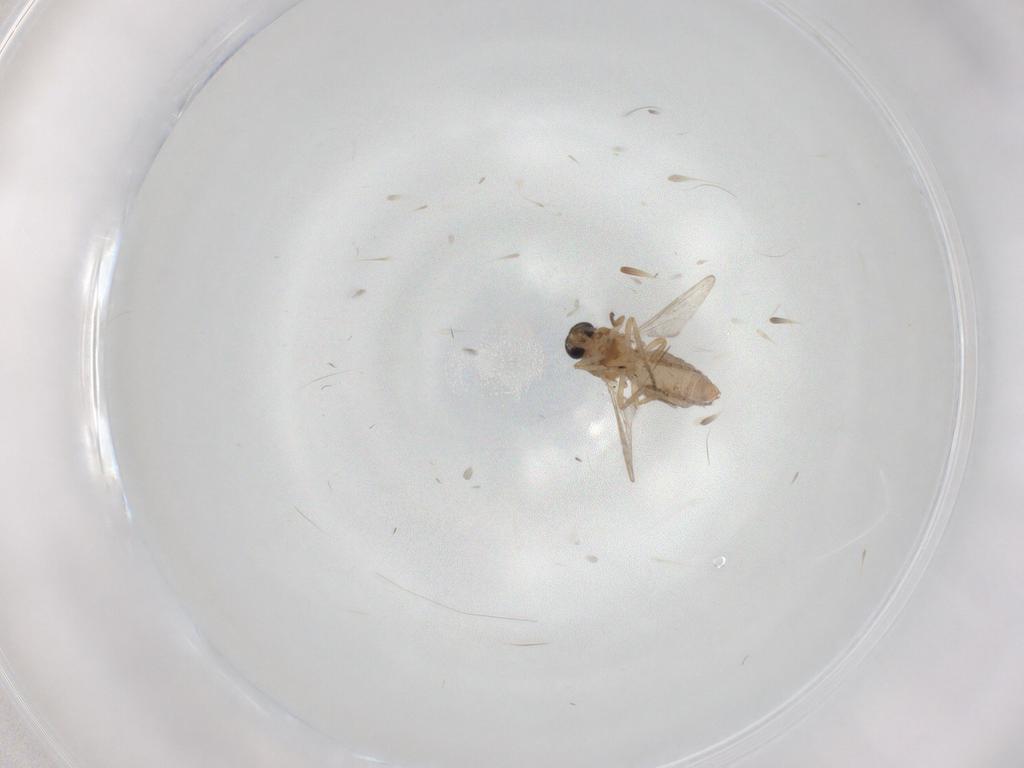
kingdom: Animalia
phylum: Arthropoda
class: Insecta
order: Diptera
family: Ceratopogonidae
